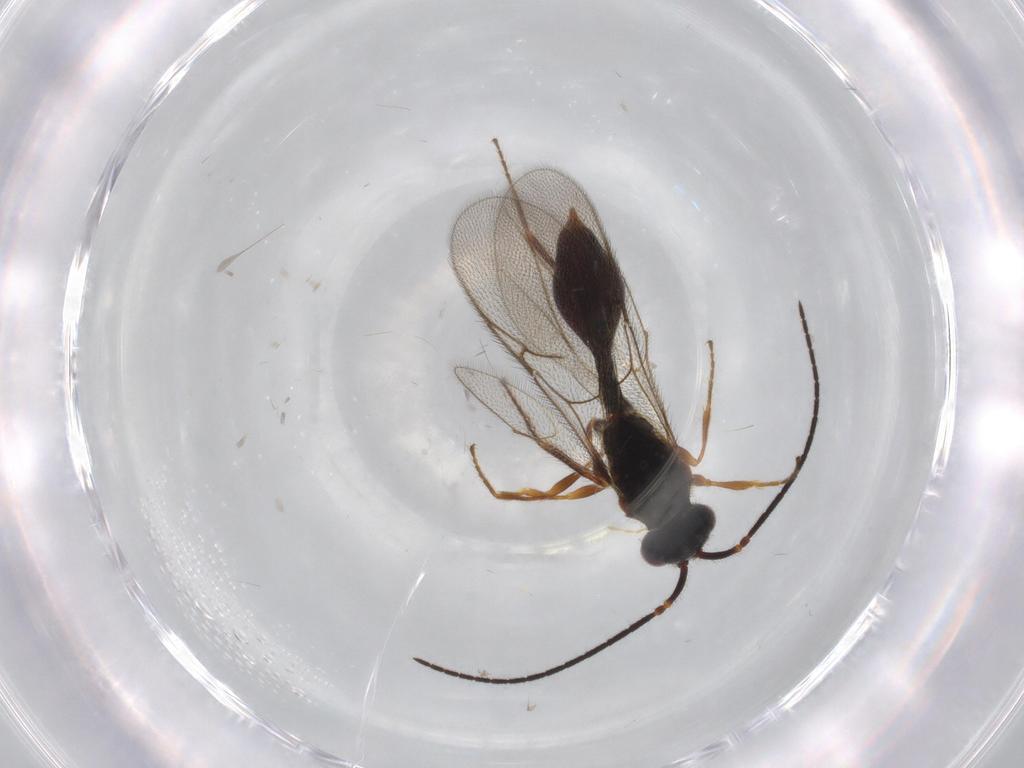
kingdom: Animalia
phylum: Arthropoda
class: Insecta
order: Hymenoptera
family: Diapriidae
